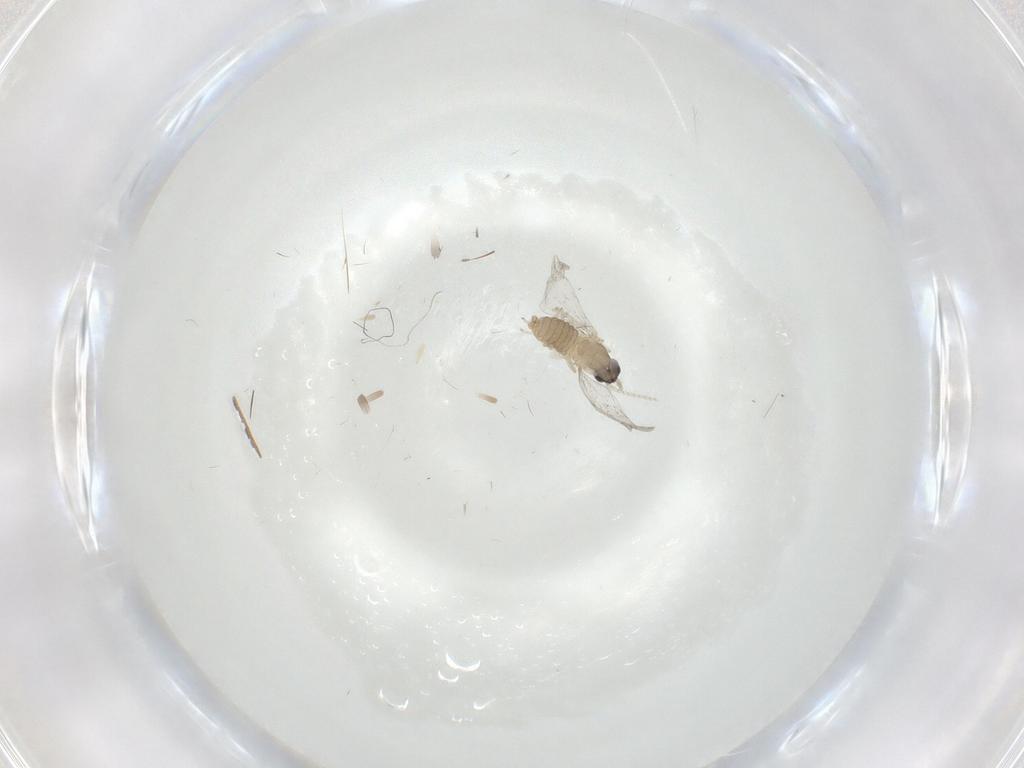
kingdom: Animalia
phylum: Arthropoda
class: Insecta
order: Diptera
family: Cecidomyiidae
